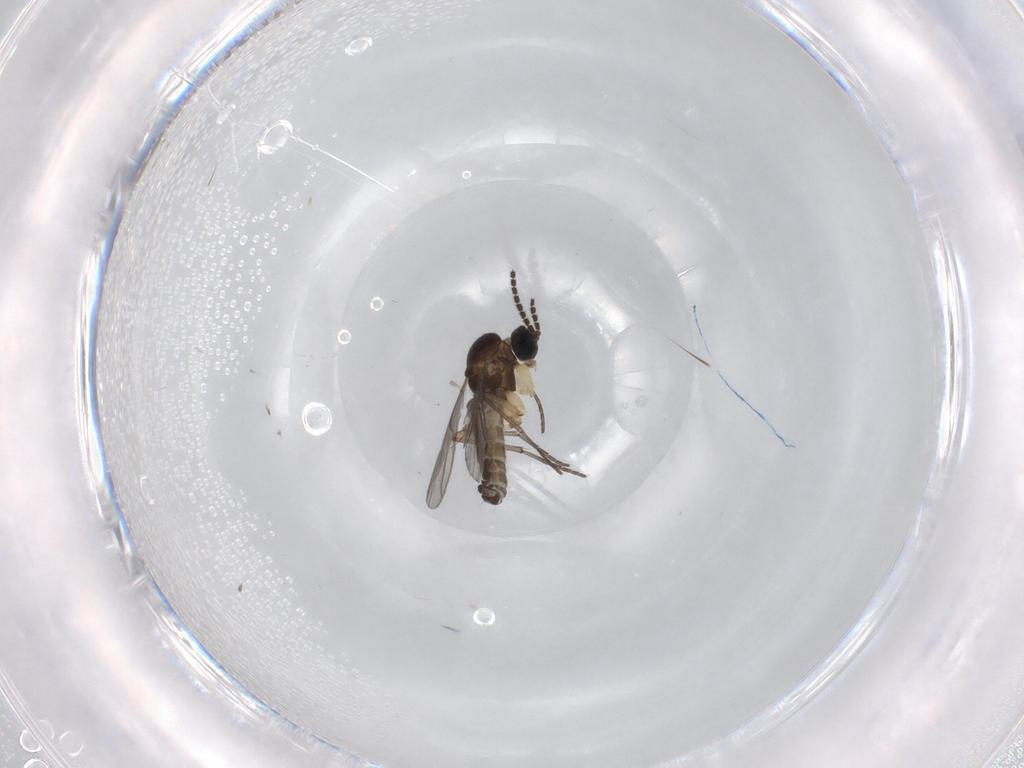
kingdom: Animalia
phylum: Arthropoda
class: Insecta
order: Diptera
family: Sciaridae
